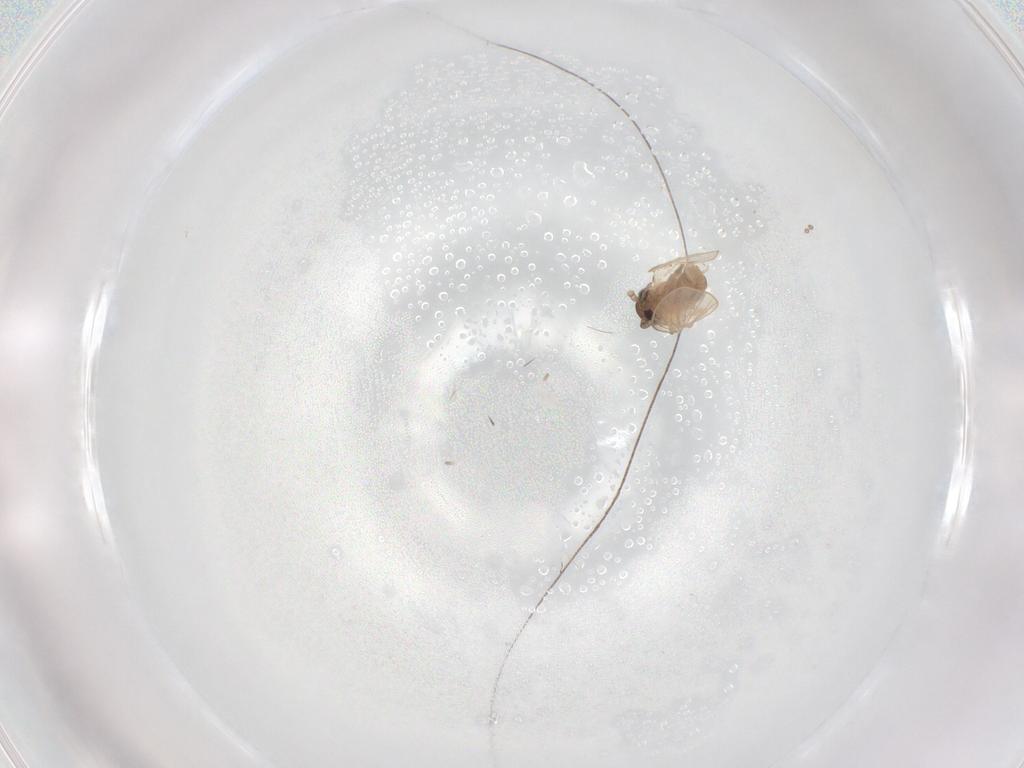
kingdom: Animalia
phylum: Arthropoda
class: Insecta
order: Diptera
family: Psychodidae
